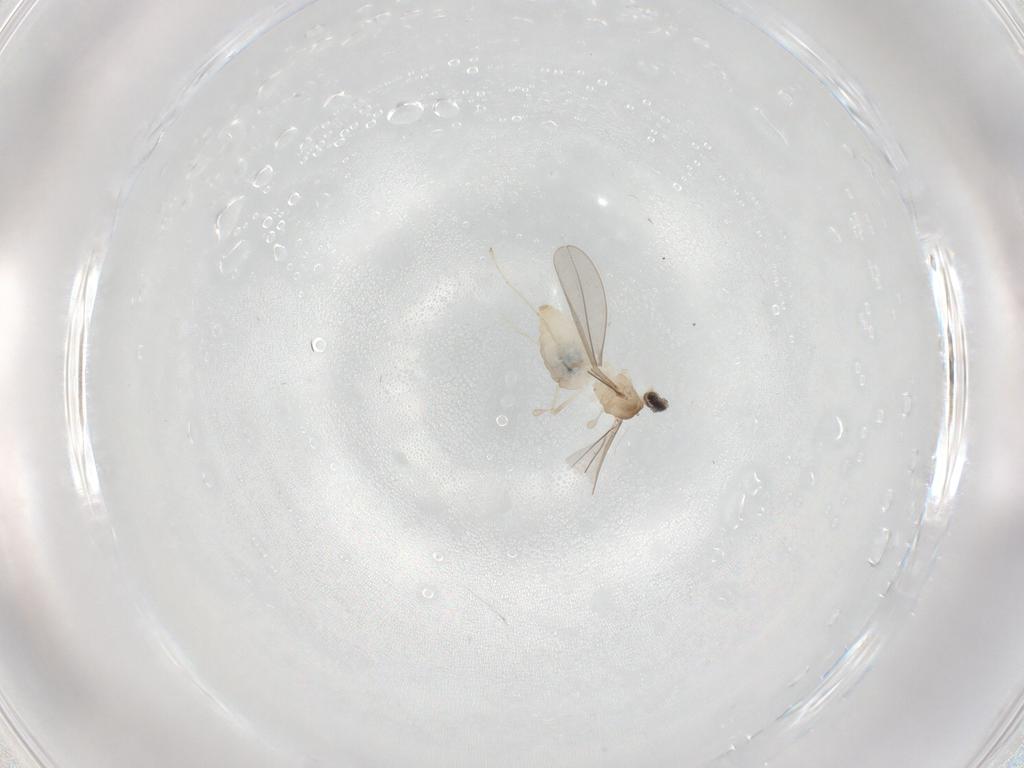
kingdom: Animalia
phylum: Arthropoda
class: Insecta
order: Diptera
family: Cecidomyiidae
